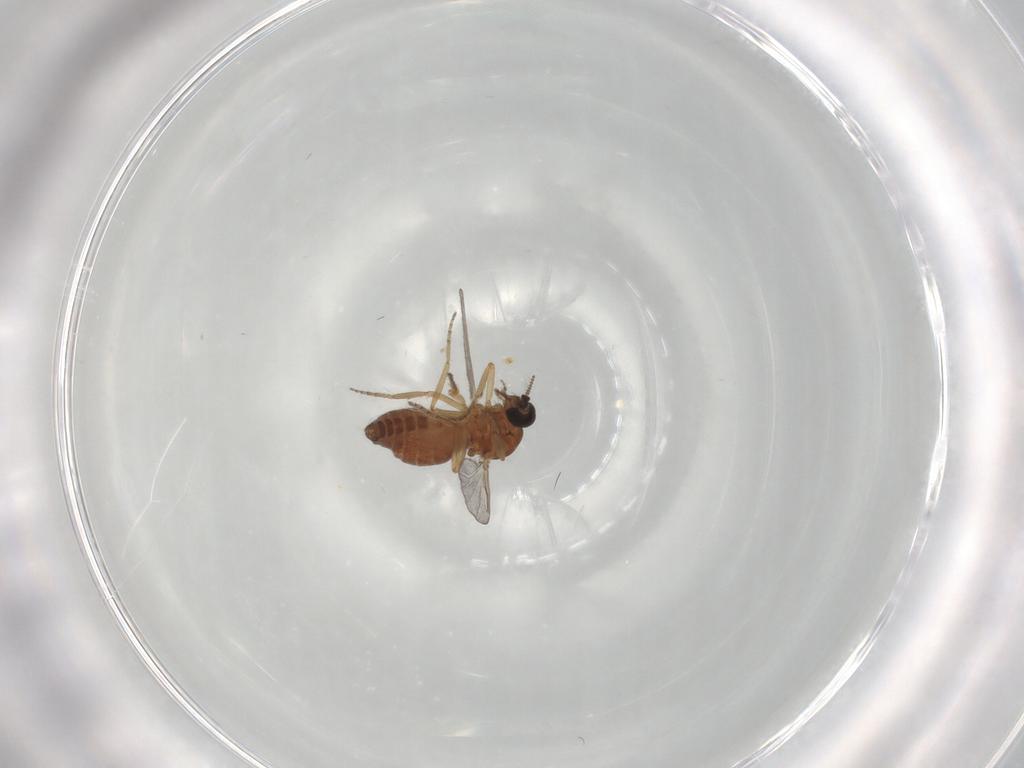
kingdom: Animalia
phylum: Arthropoda
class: Insecta
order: Diptera
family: Ceratopogonidae
